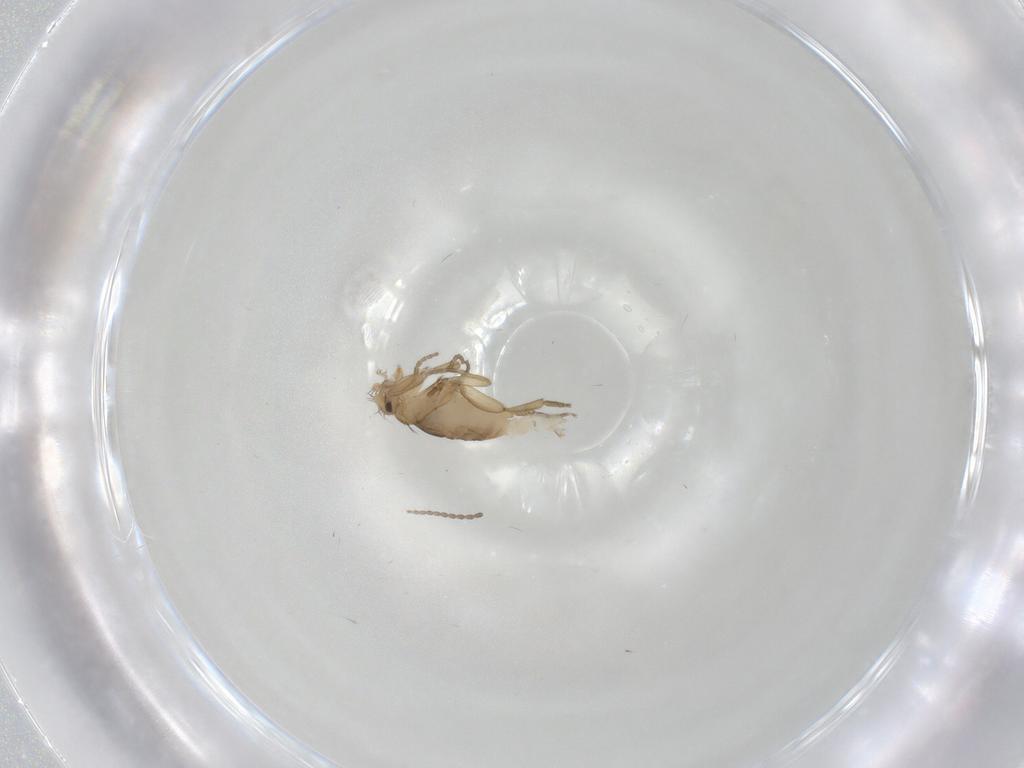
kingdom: Animalia
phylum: Arthropoda
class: Insecta
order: Diptera
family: Phoridae
